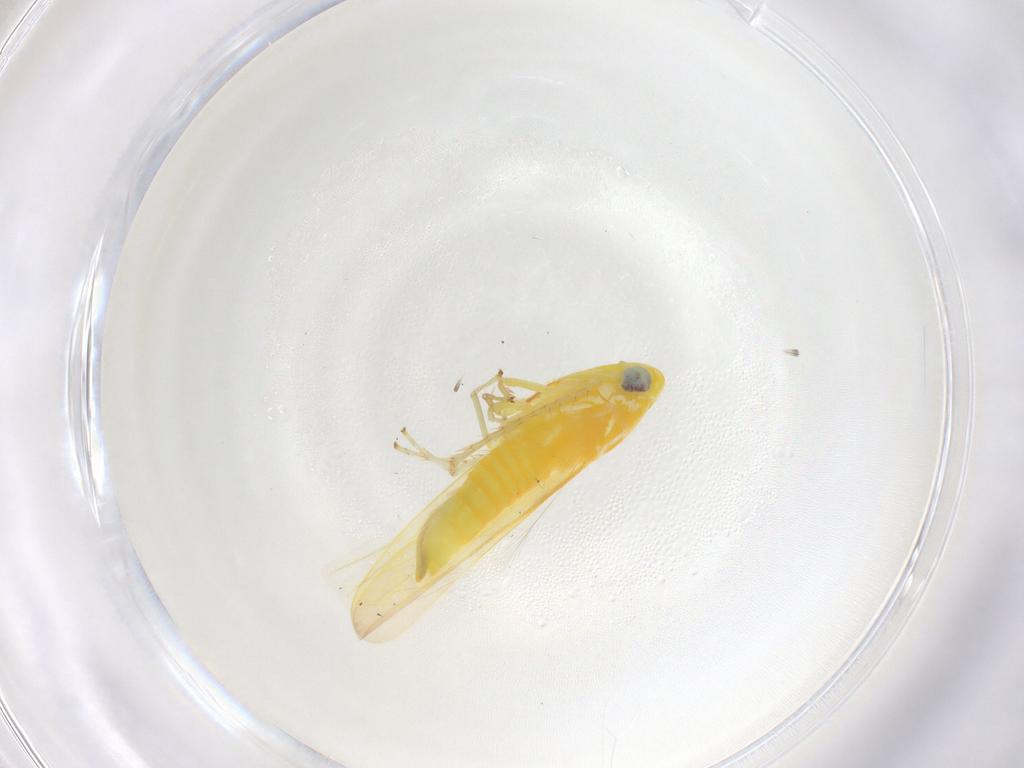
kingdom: Animalia
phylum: Arthropoda
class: Insecta
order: Hemiptera
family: Cicadellidae
